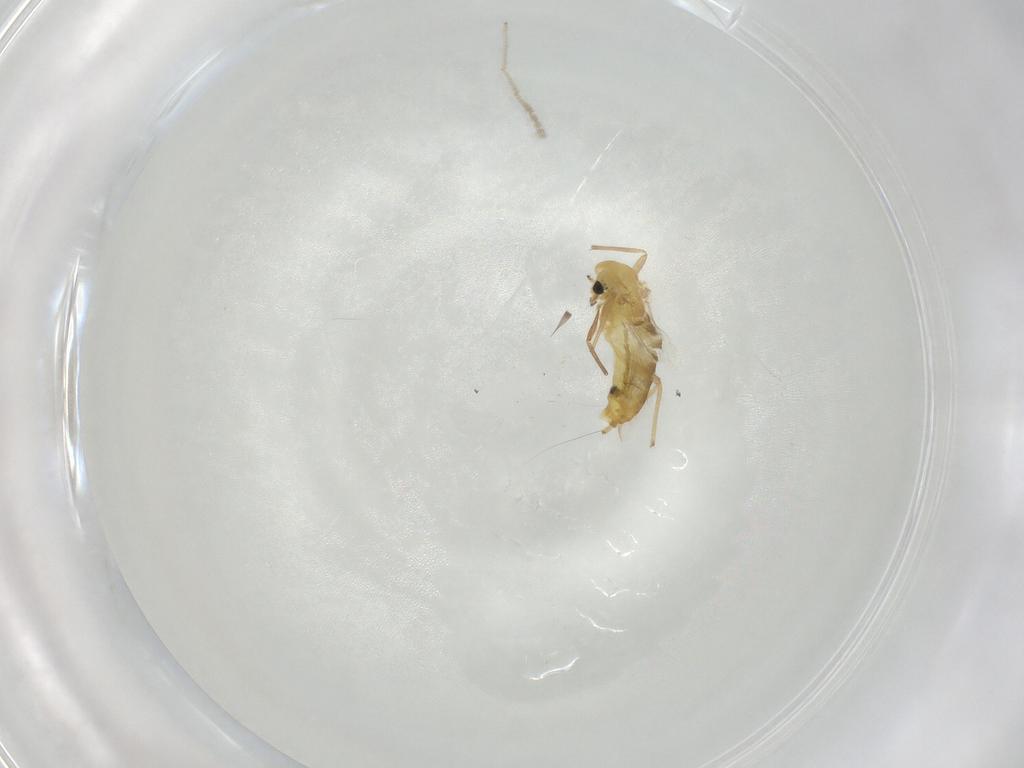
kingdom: Animalia
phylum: Arthropoda
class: Insecta
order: Diptera
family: Chironomidae
